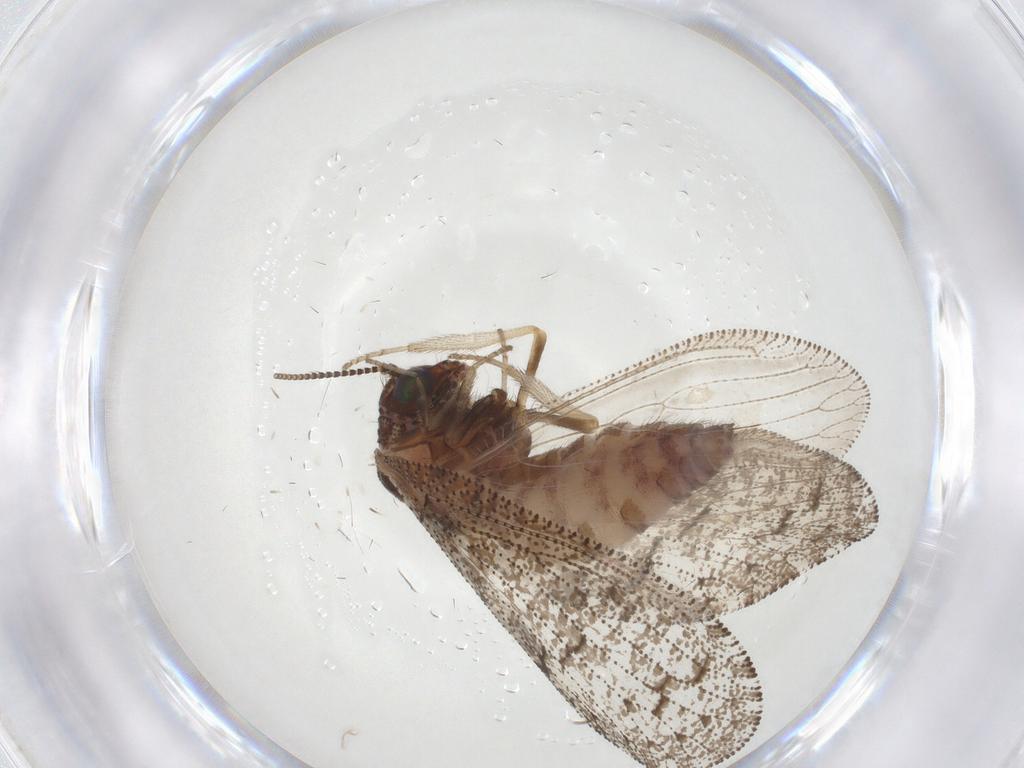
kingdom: Animalia
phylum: Arthropoda
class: Insecta
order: Neuroptera
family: Hemerobiidae
